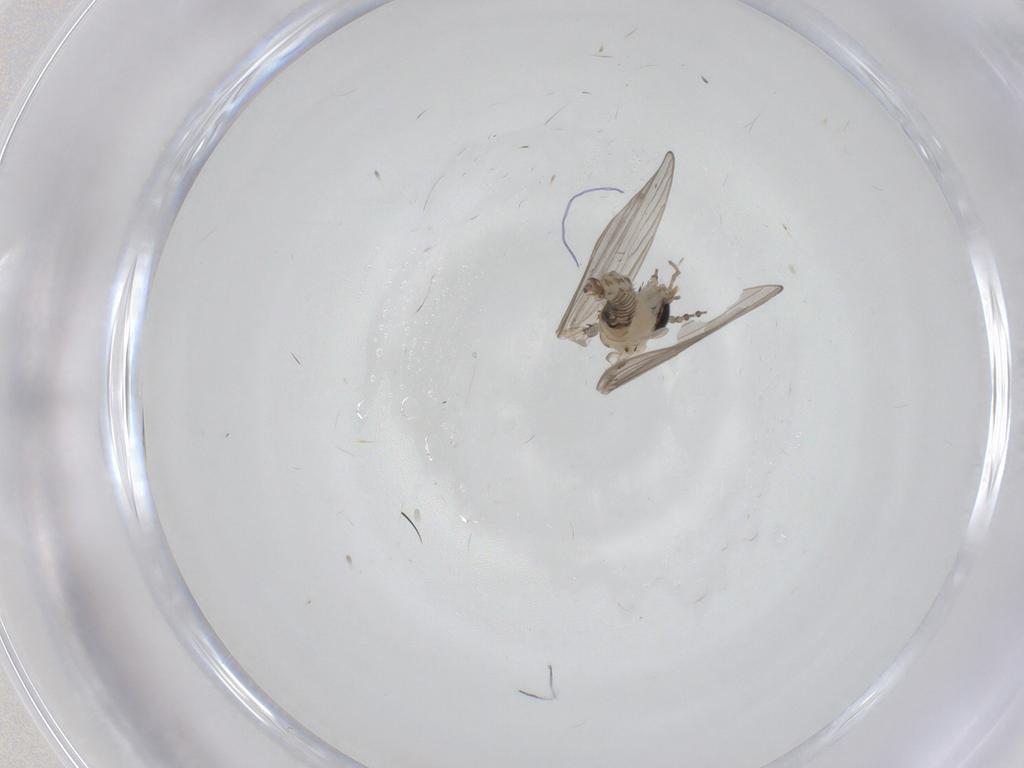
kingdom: Animalia
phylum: Arthropoda
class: Insecta
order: Diptera
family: Psychodidae
